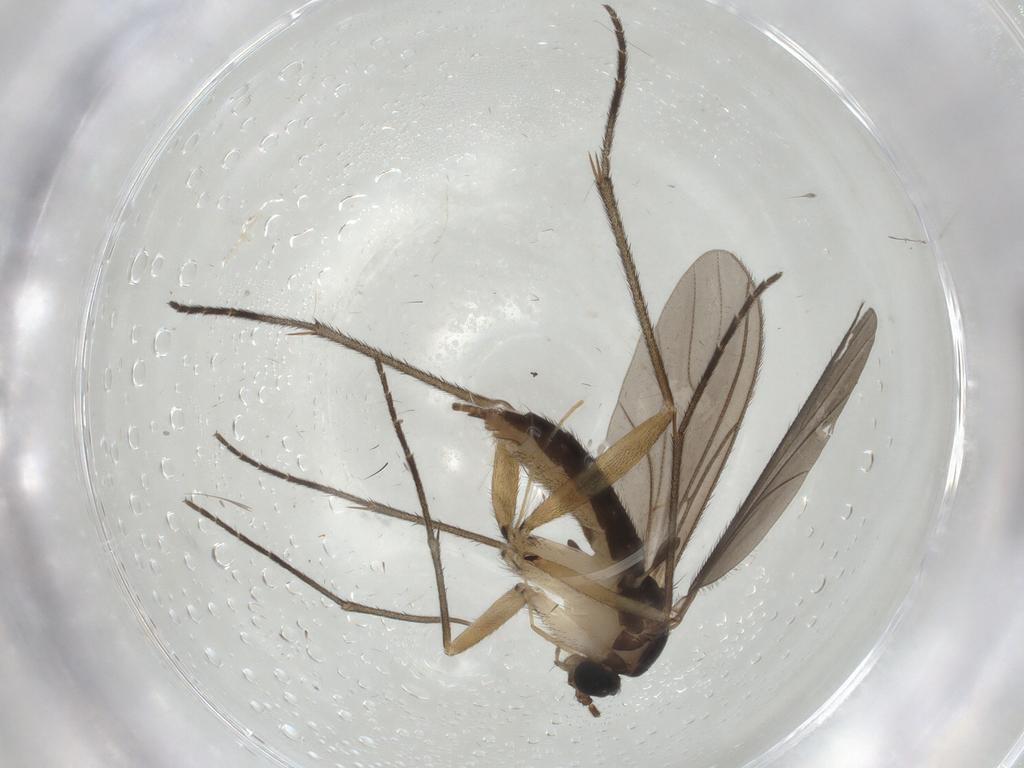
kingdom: Animalia
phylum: Arthropoda
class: Insecta
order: Diptera
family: Sciaridae
